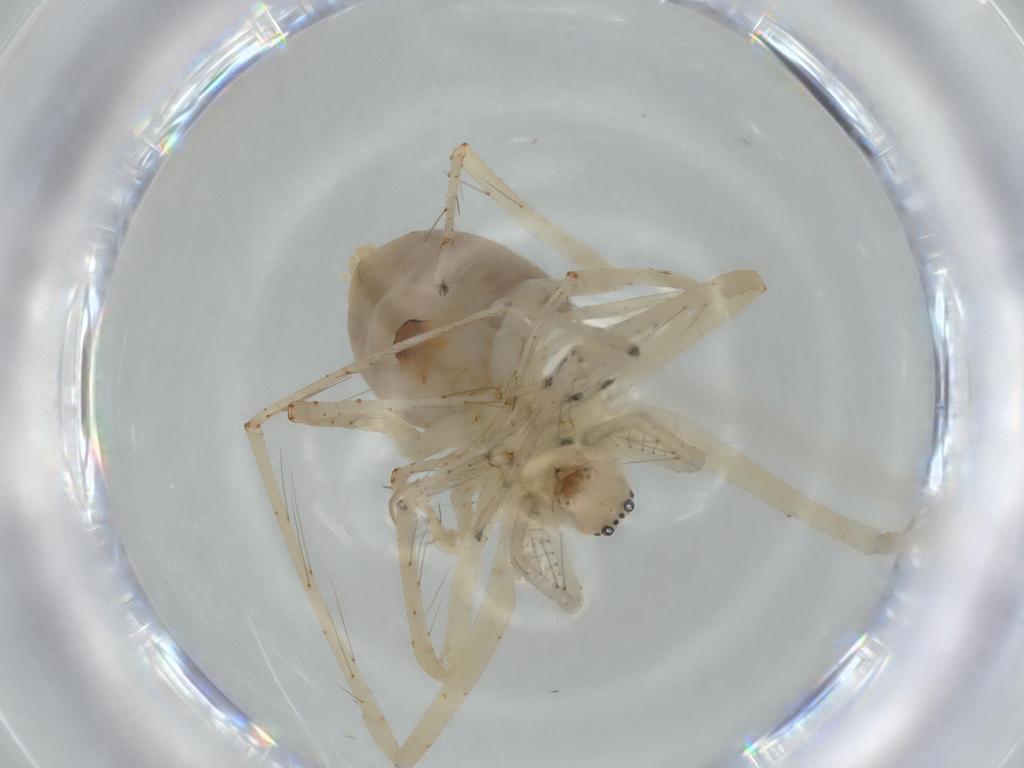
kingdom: Animalia
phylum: Arthropoda
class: Arachnida
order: Araneae
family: Anyphaenidae
